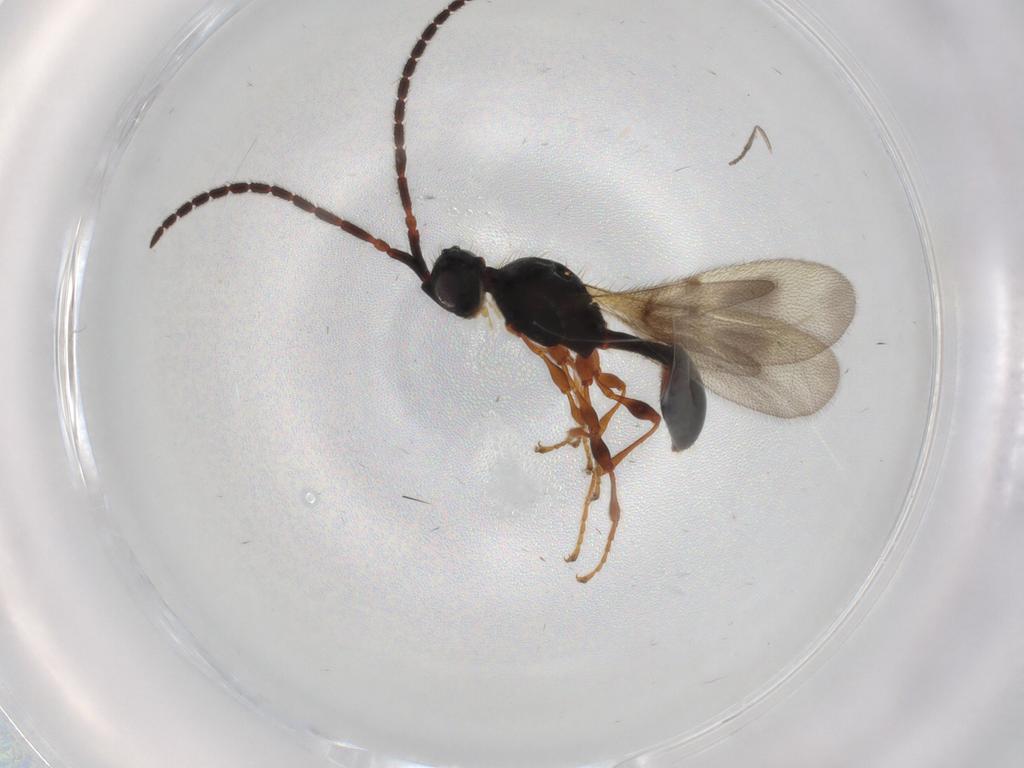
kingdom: Animalia
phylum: Arthropoda
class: Insecta
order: Hymenoptera
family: Diapriidae
